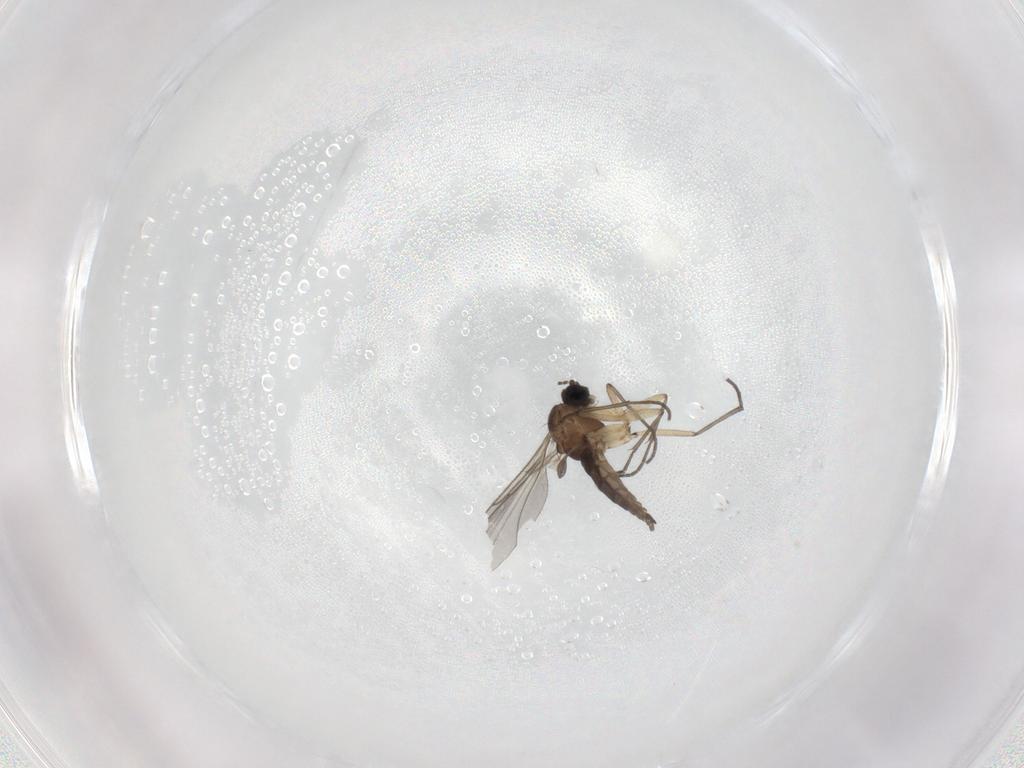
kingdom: Animalia
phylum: Arthropoda
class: Insecta
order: Diptera
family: Sciaridae
